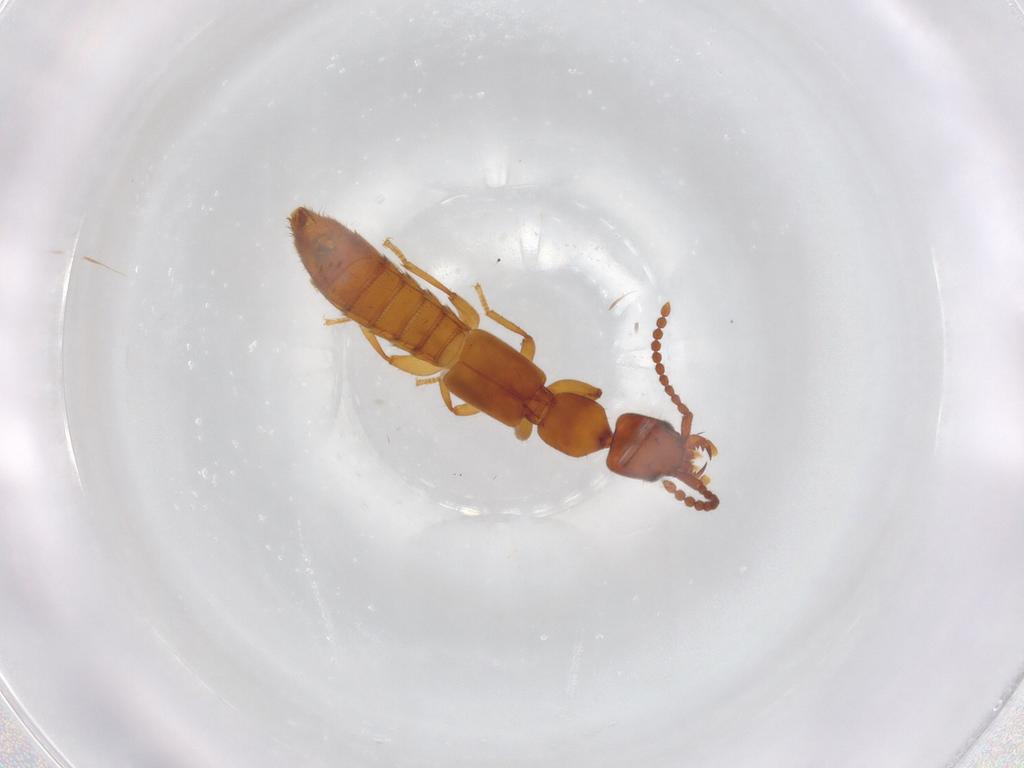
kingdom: Animalia
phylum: Arthropoda
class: Insecta
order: Coleoptera
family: Staphylinidae
